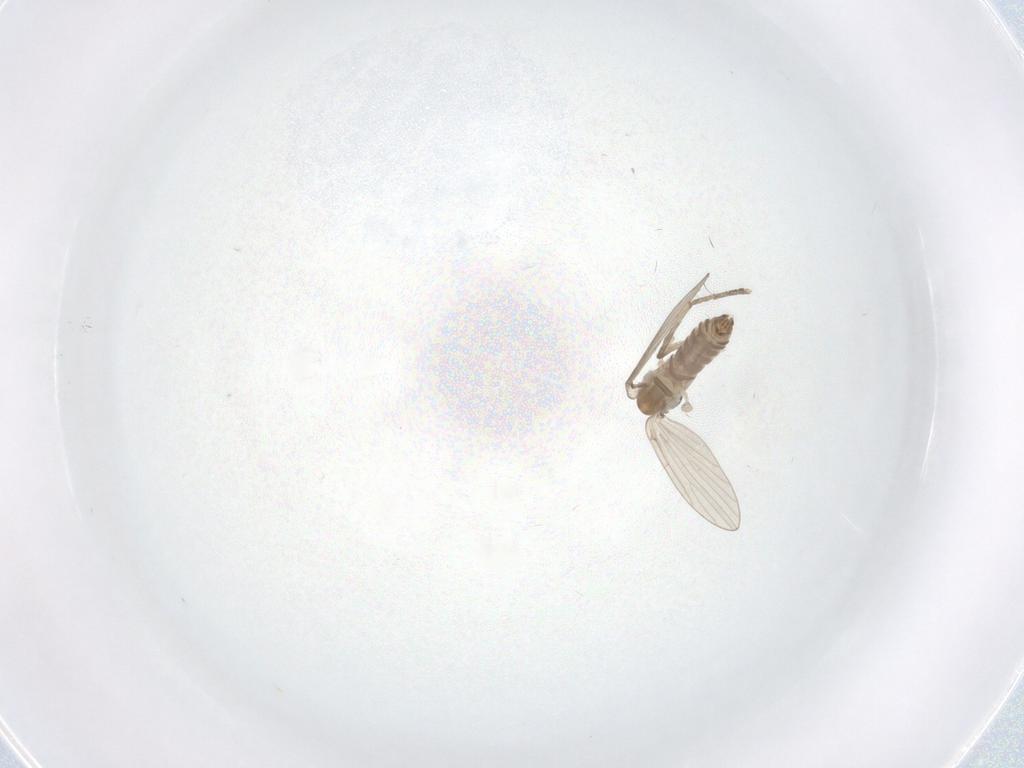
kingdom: Animalia
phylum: Arthropoda
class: Insecta
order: Diptera
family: Psychodidae
